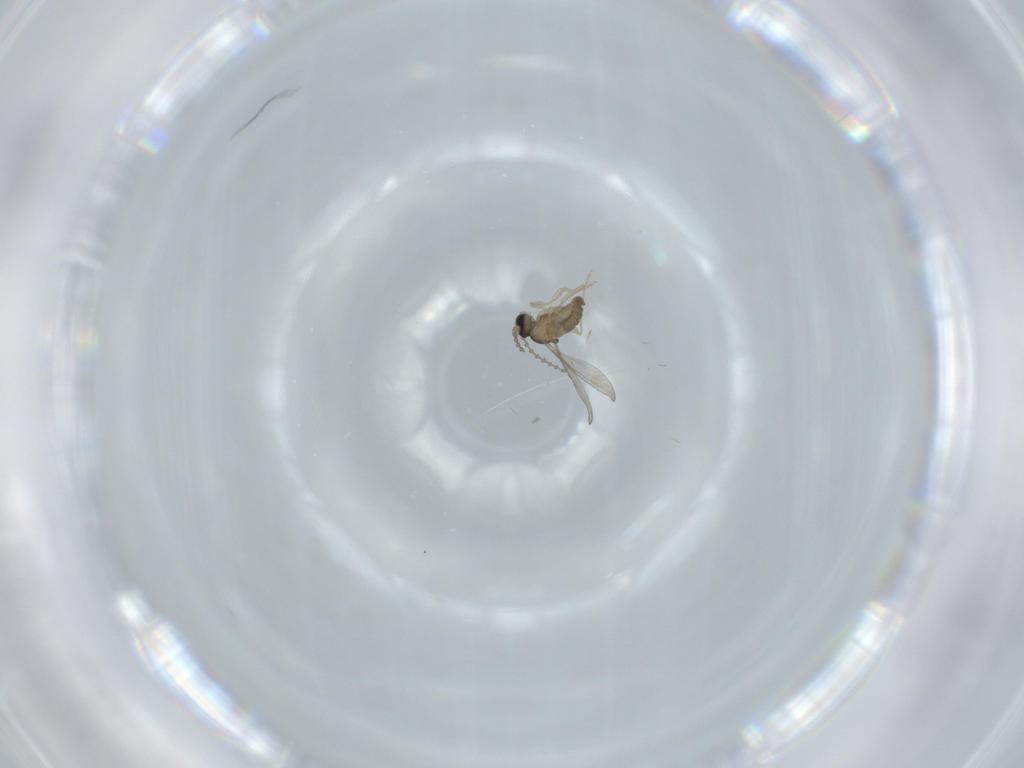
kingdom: Animalia
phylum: Arthropoda
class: Insecta
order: Diptera
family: Cecidomyiidae
